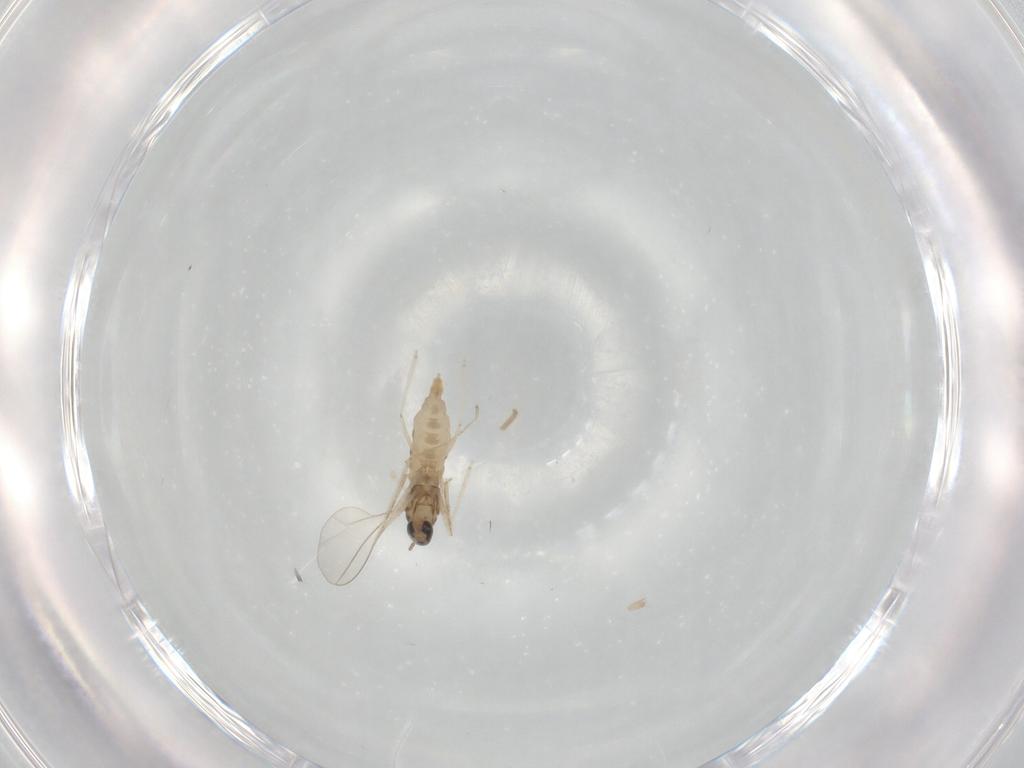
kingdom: Animalia
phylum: Arthropoda
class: Insecta
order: Diptera
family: Cecidomyiidae
